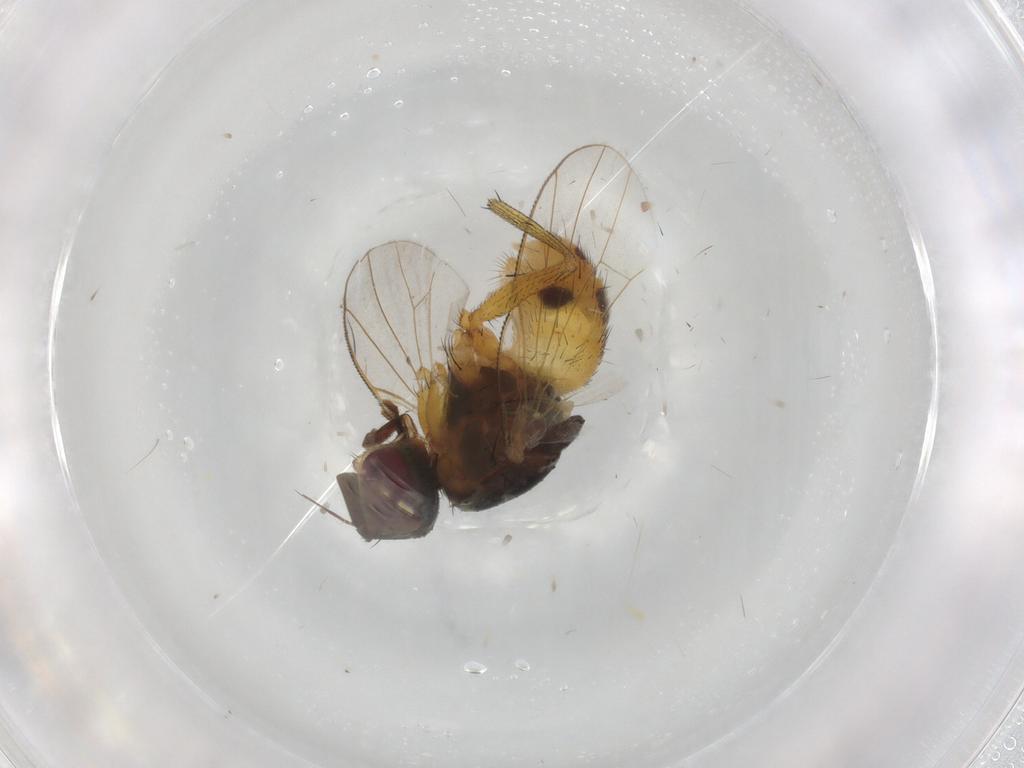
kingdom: Animalia
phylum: Arthropoda
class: Insecta
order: Diptera
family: Muscidae
